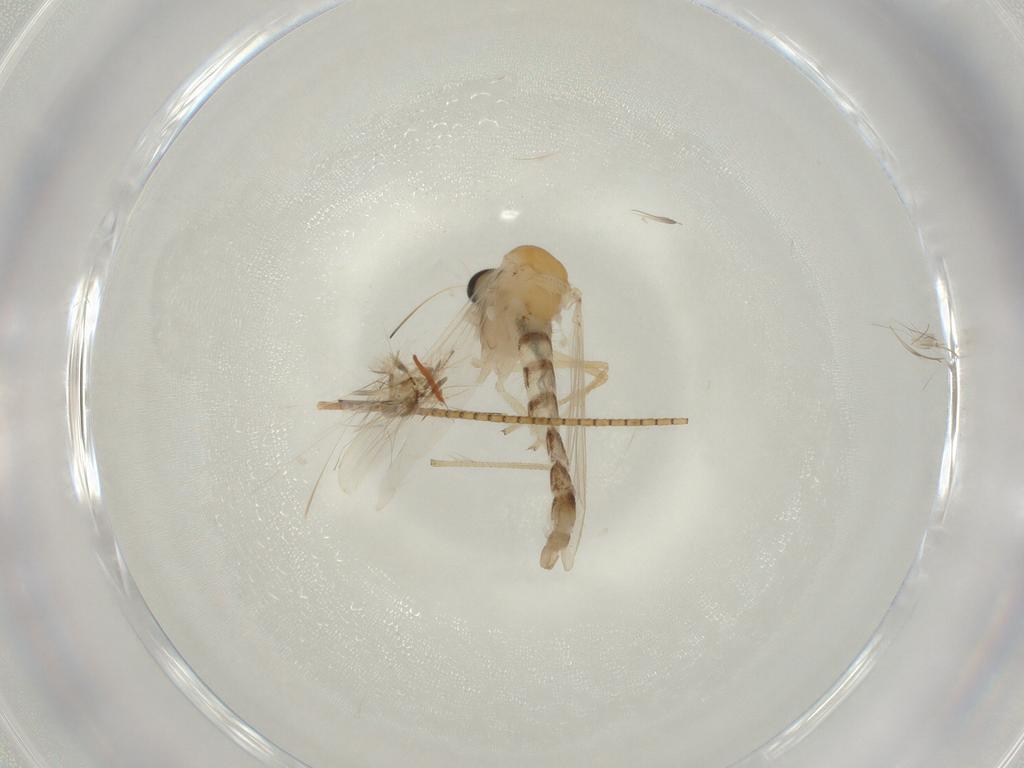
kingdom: Animalia
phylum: Arthropoda
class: Insecta
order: Diptera
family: Chironomidae
